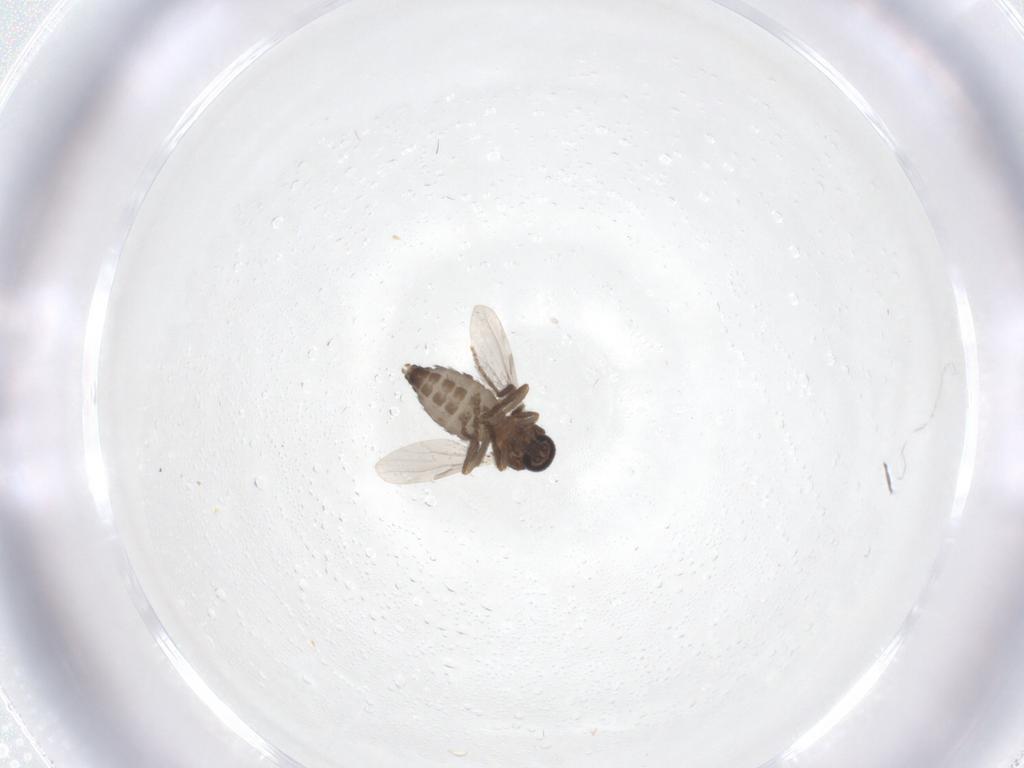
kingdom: Animalia
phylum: Arthropoda
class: Insecta
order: Diptera
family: Ceratopogonidae
